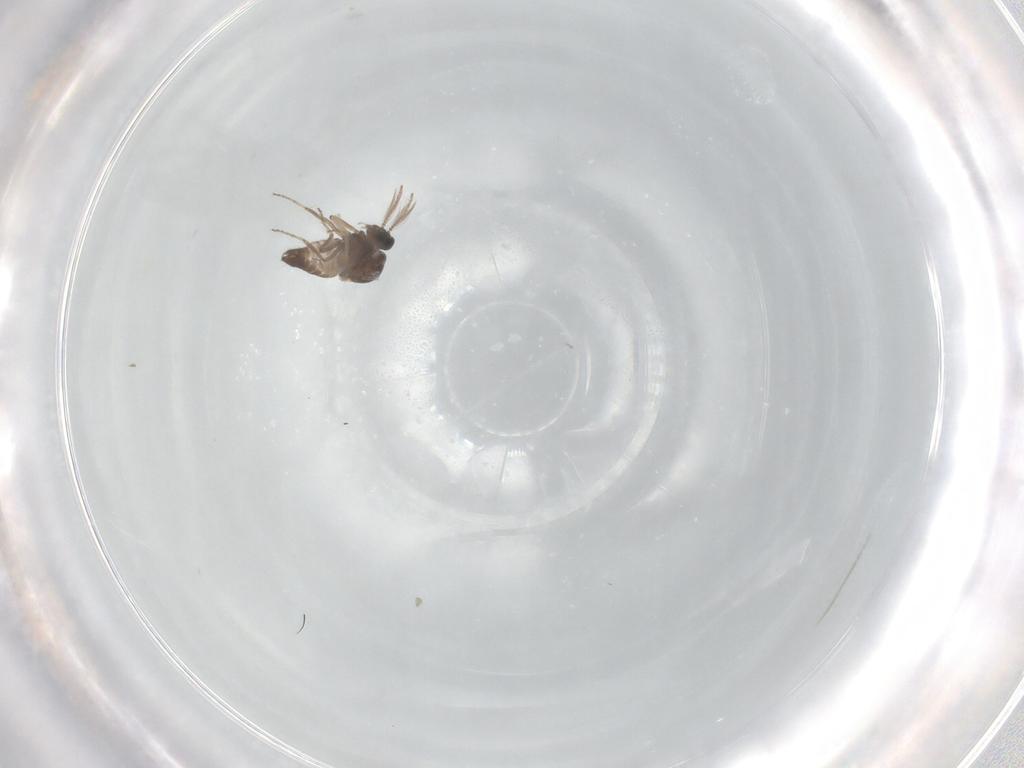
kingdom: Animalia
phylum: Arthropoda
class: Insecta
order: Diptera
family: Ceratopogonidae
